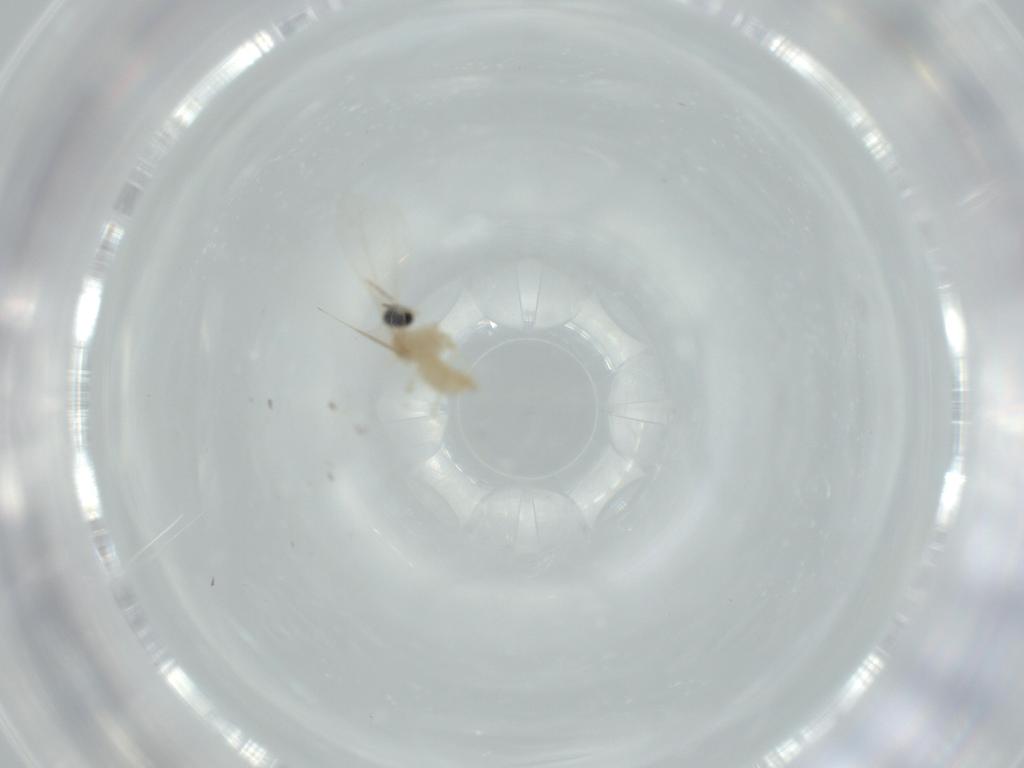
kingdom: Animalia
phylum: Arthropoda
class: Insecta
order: Diptera
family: Cecidomyiidae
